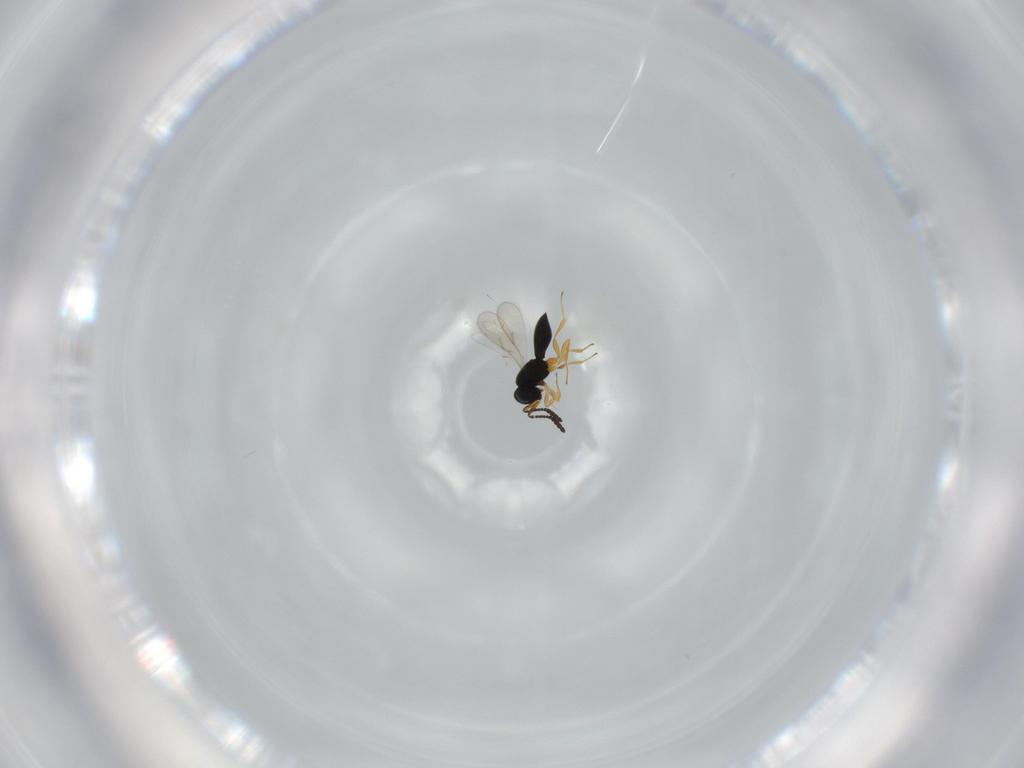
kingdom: Animalia
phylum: Arthropoda
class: Insecta
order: Hymenoptera
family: Scelionidae
